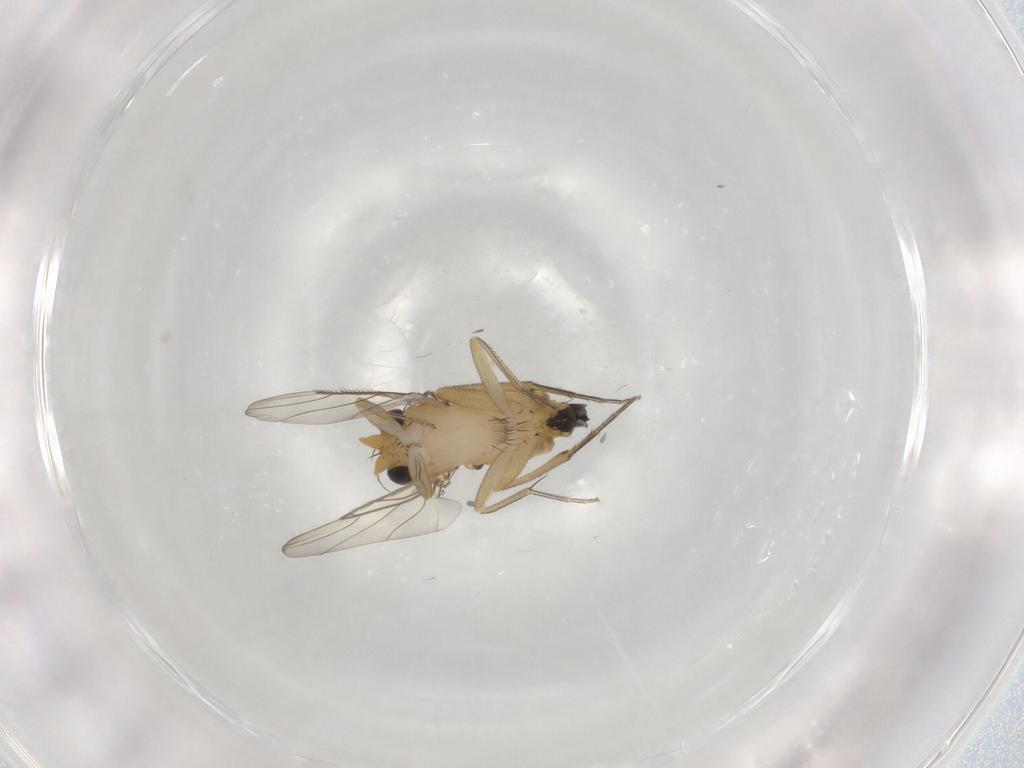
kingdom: Animalia
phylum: Arthropoda
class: Insecta
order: Diptera
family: Phoridae
